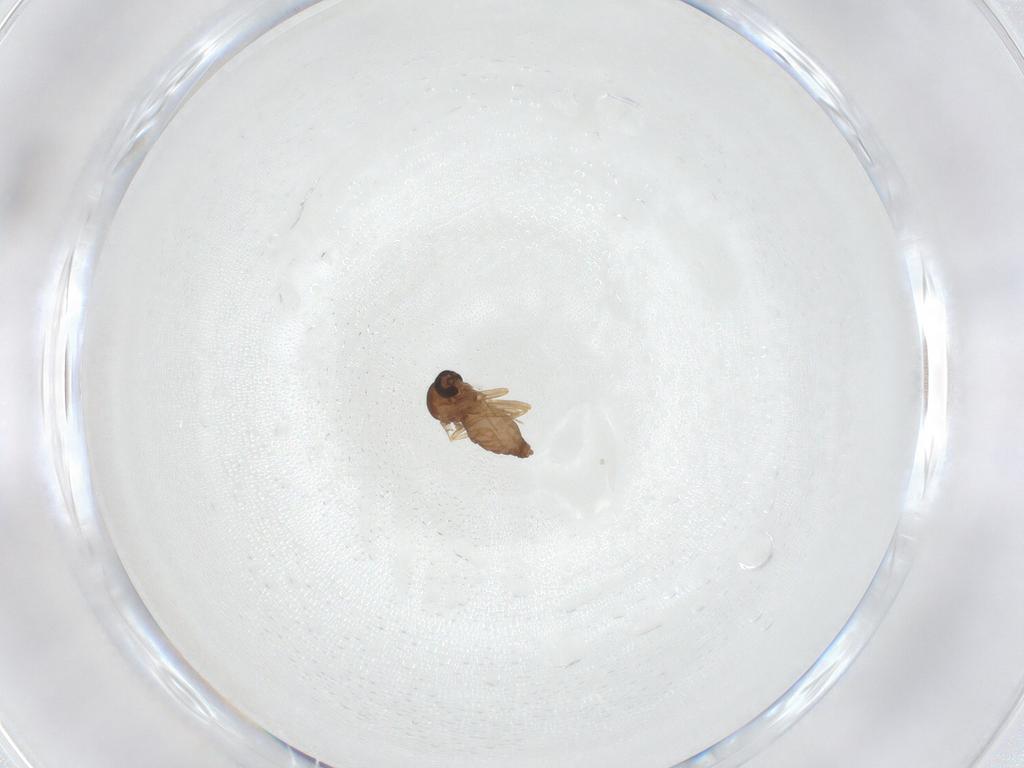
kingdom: Animalia
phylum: Arthropoda
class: Insecta
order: Diptera
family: Ceratopogonidae
